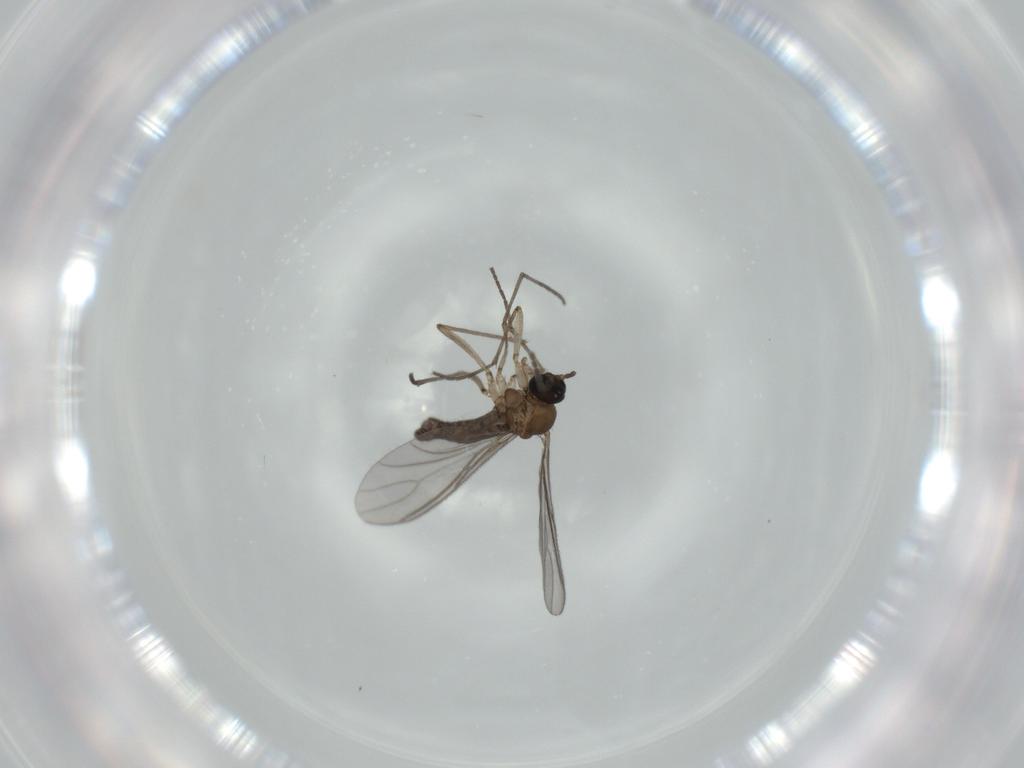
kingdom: Animalia
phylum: Arthropoda
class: Insecta
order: Diptera
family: Sciaridae
